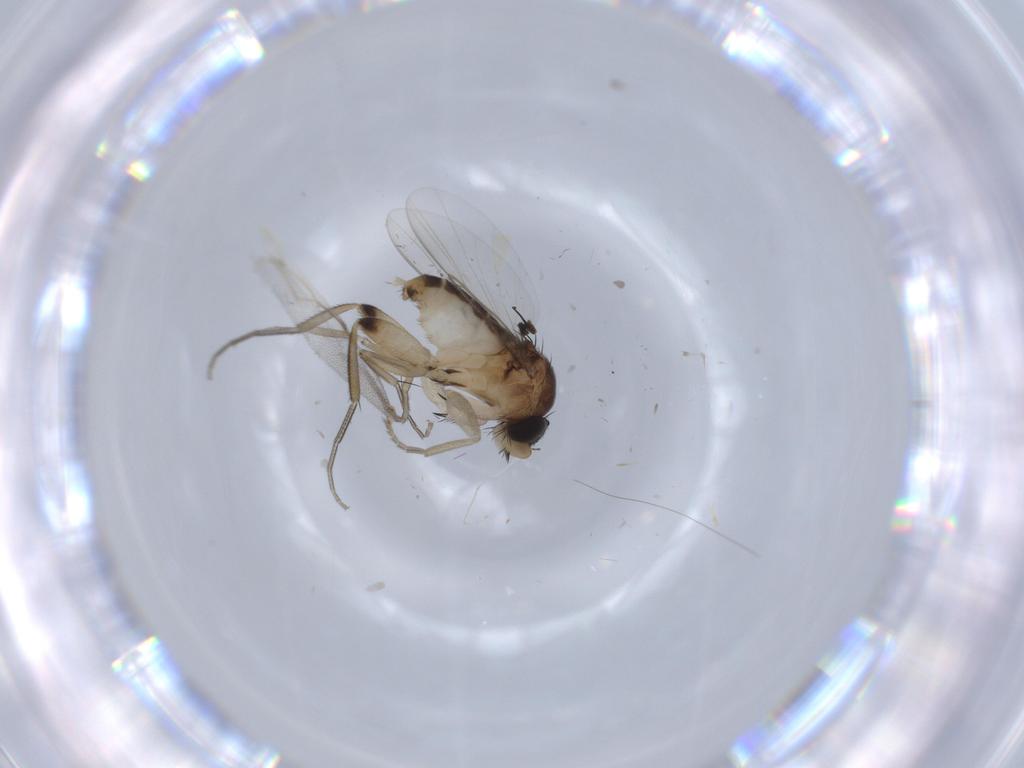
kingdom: Animalia
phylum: Arthropoda
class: Insecta
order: Diptera
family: Phoridae
